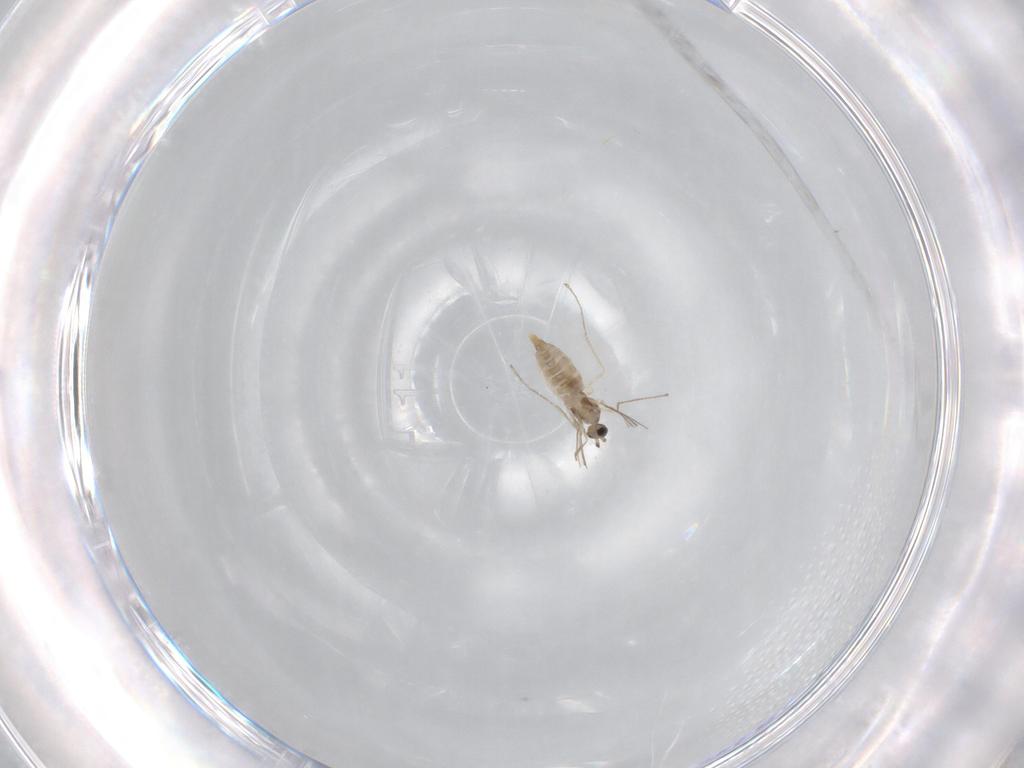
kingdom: Animalia
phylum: Arthropoda
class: Insecta
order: Diptera
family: Cecidomyiidae
